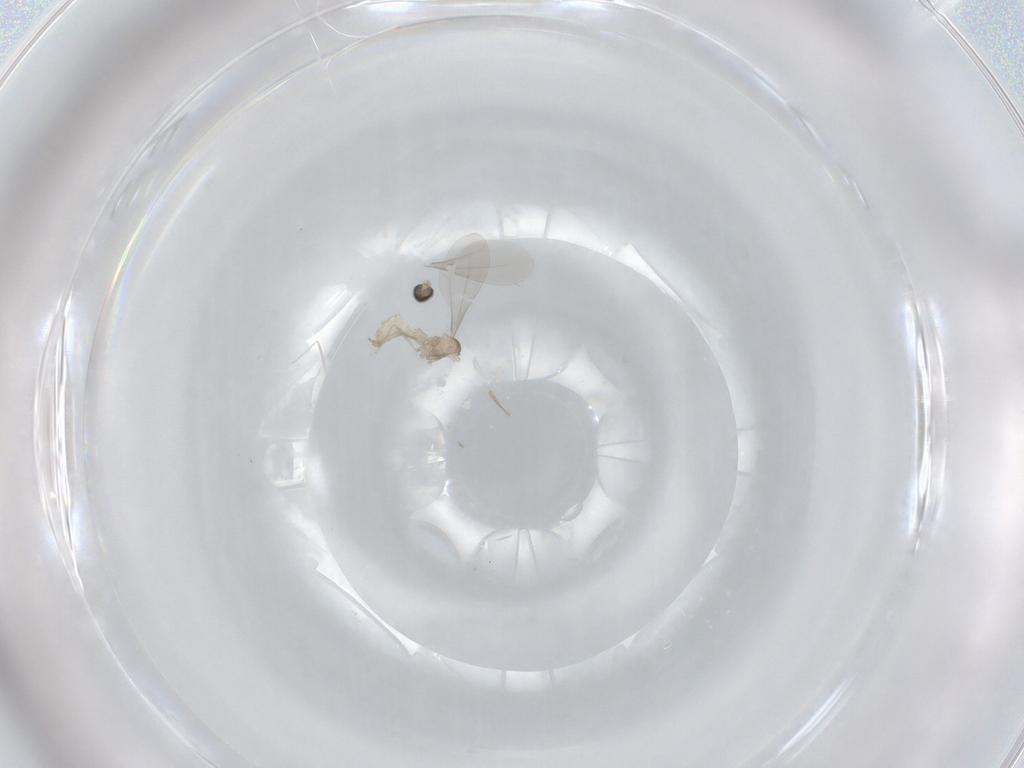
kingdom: Animalia
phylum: Arthropoda
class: Insecta
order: Diptera
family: Cecidomyiidae
